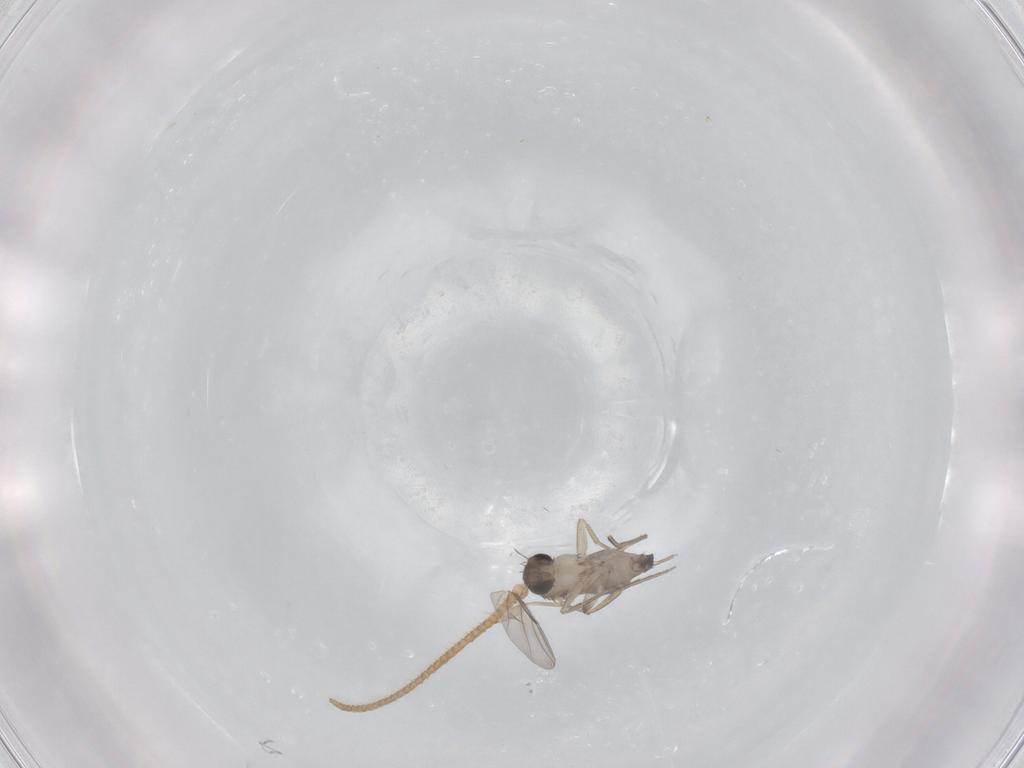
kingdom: Animalia
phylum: Arthropoda
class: Insecta
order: Diptera
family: Phoridae
